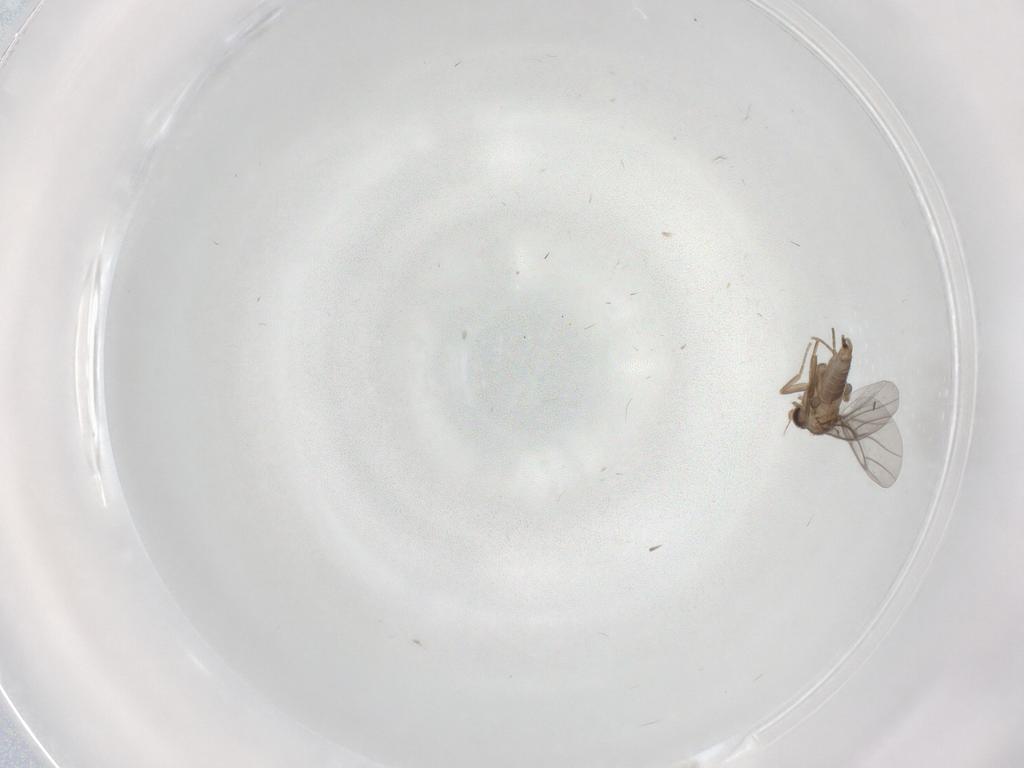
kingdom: Animalia
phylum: Arthropoda
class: Insecta
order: Diptera
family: Psychodidae
